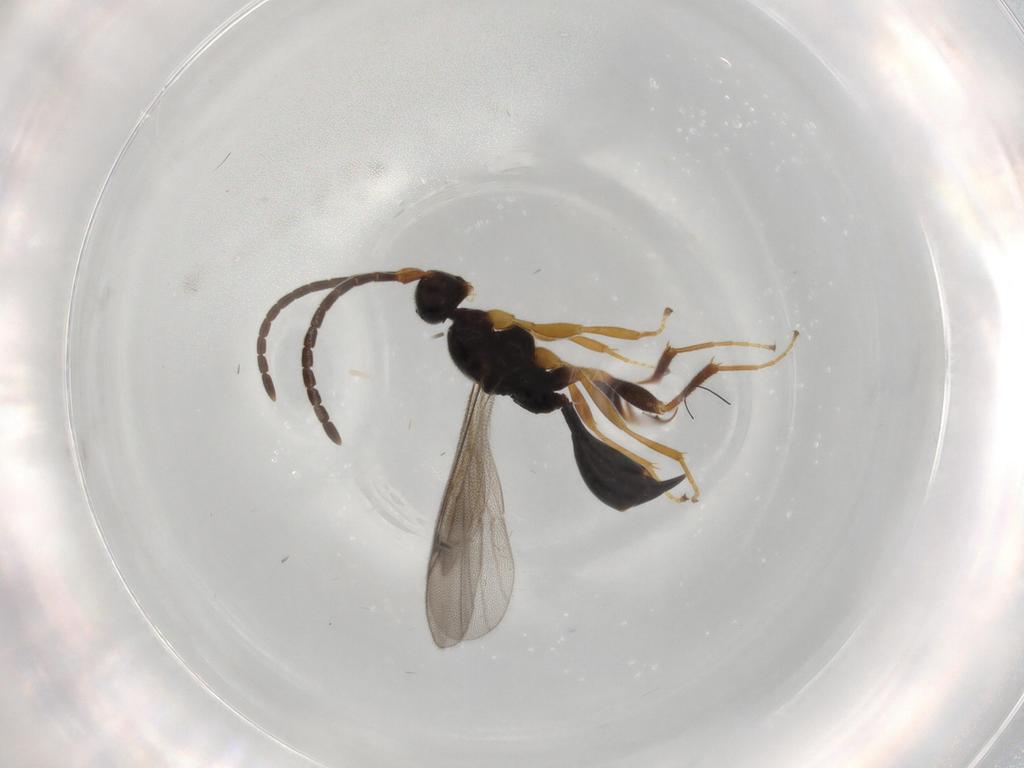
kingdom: Animalia
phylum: Arthropoda
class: Insecta
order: Hymenoptera
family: Proctotrupidae
